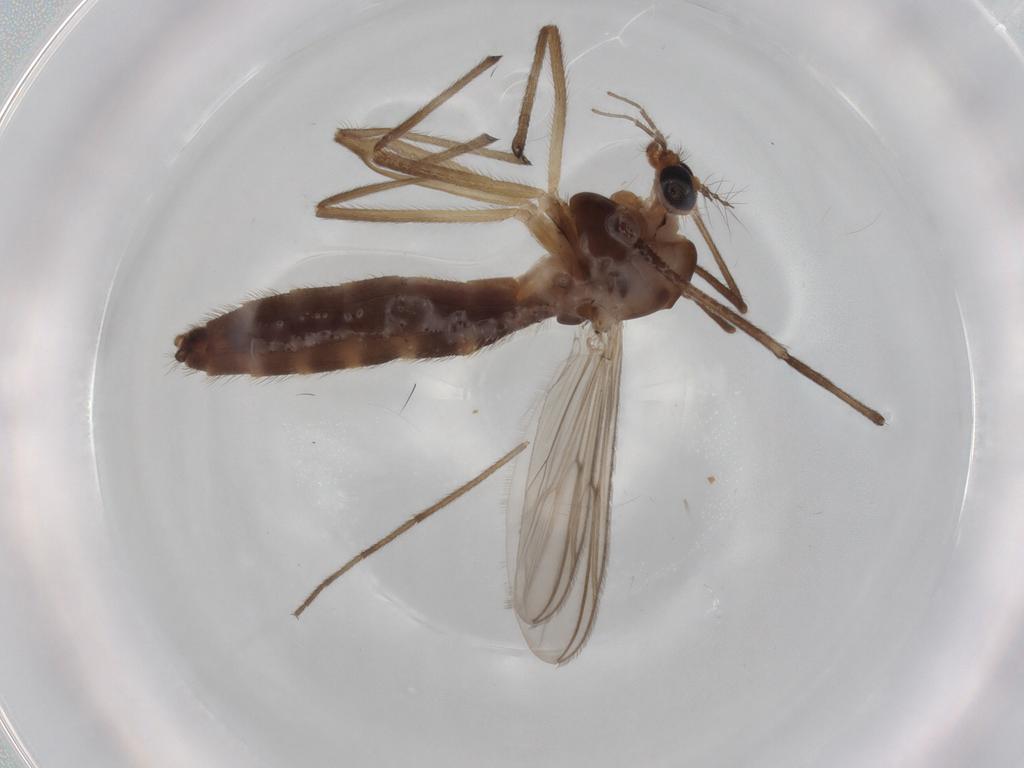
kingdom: Animalia
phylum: Arthropoda
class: Insecta
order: Diptera
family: Chironomidae
